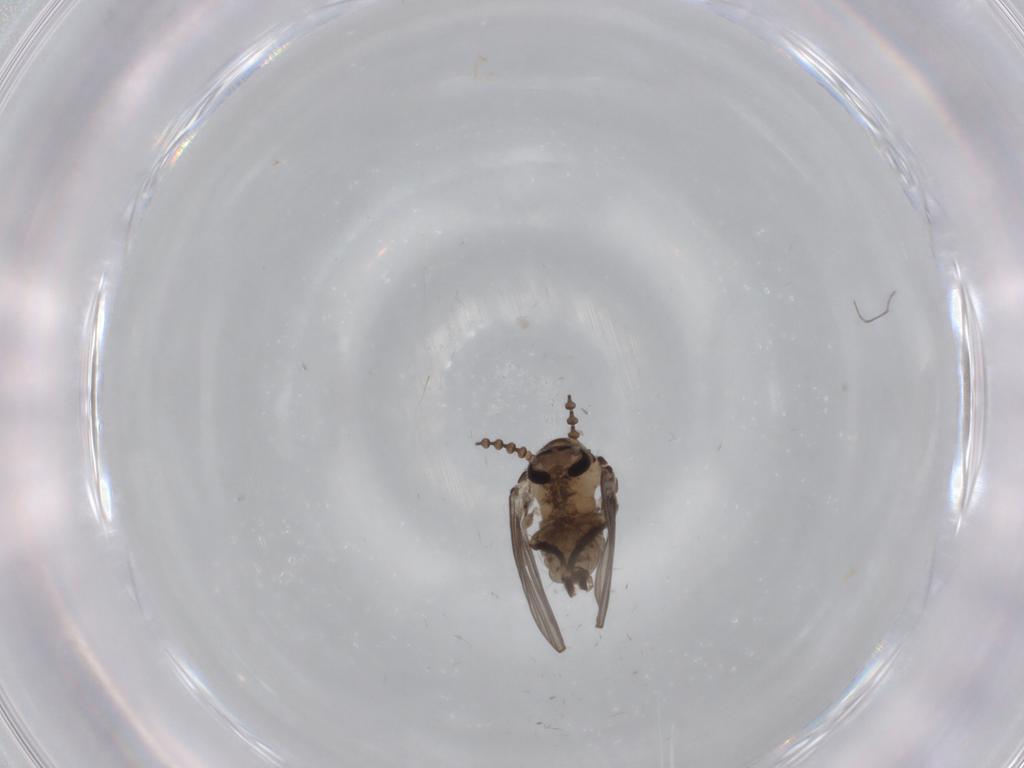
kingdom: Animalia
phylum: Arthropoda
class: Insecta
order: Diptera
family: Psychodidae
